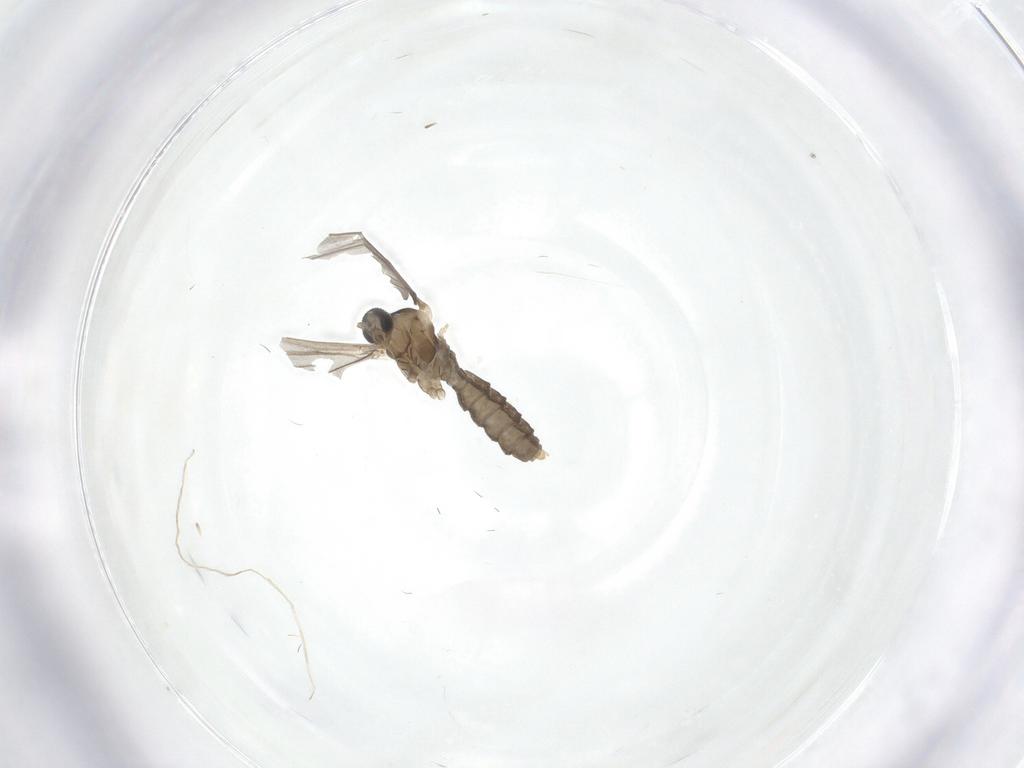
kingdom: Animalia
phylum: Arthropoda
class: Insecta
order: Diptera
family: Cecidomyiidae
